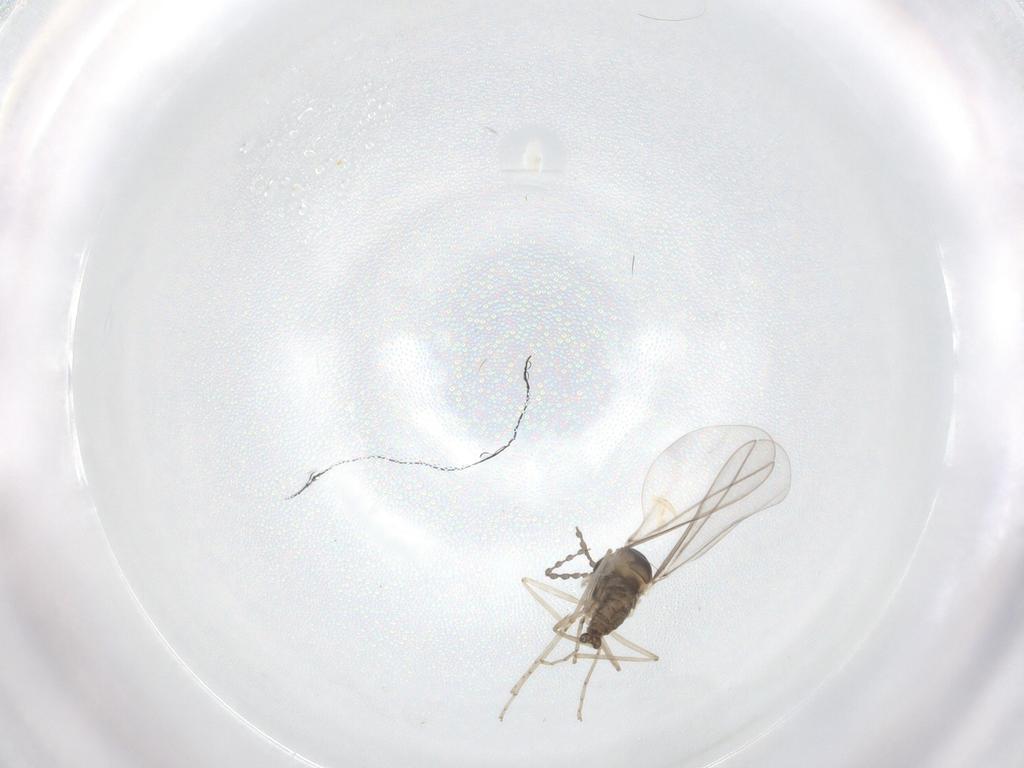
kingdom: Animalia
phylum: Arthropoda
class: Insecta
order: Diptera
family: Cecidomyiidae
